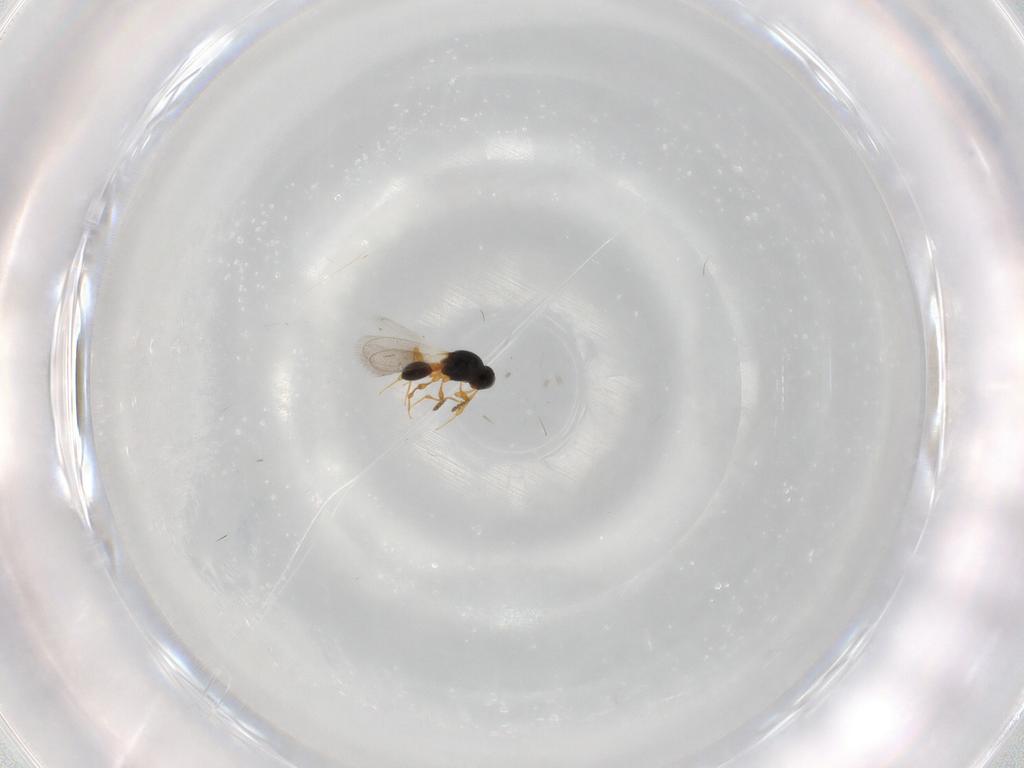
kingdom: Animalia
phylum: Arthropoda
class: Insecta
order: Hymenoptera
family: Platygastridae
